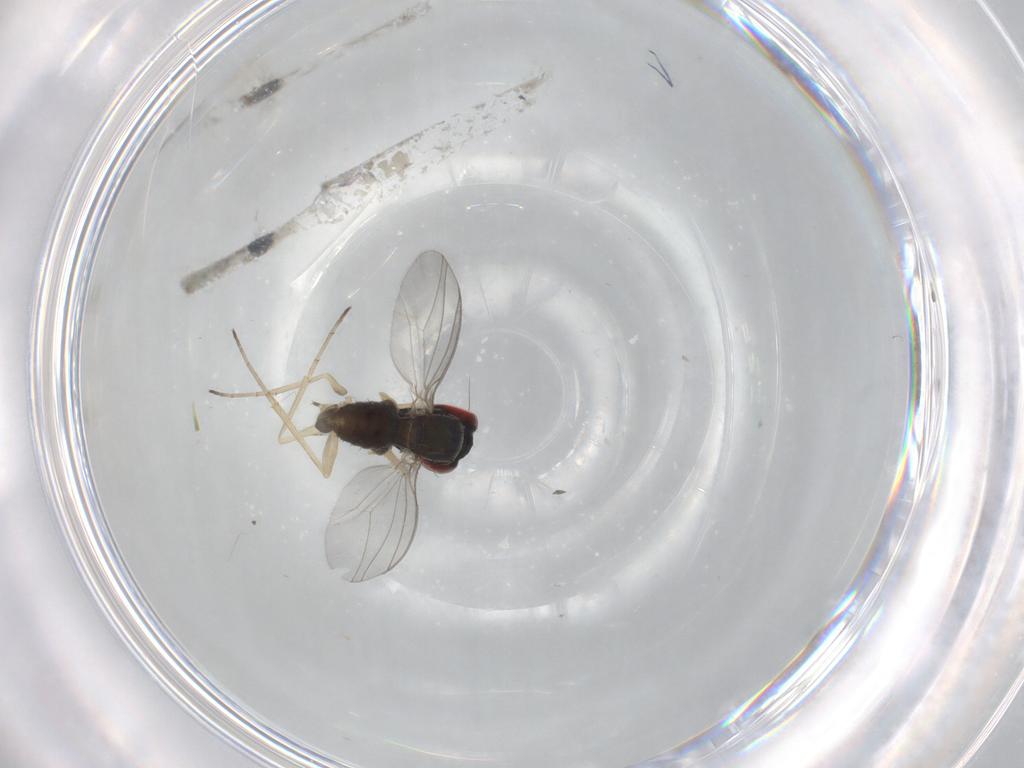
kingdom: Animalia
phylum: Arthropoda
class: Insecta
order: Diptera
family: Dolichopodidae
